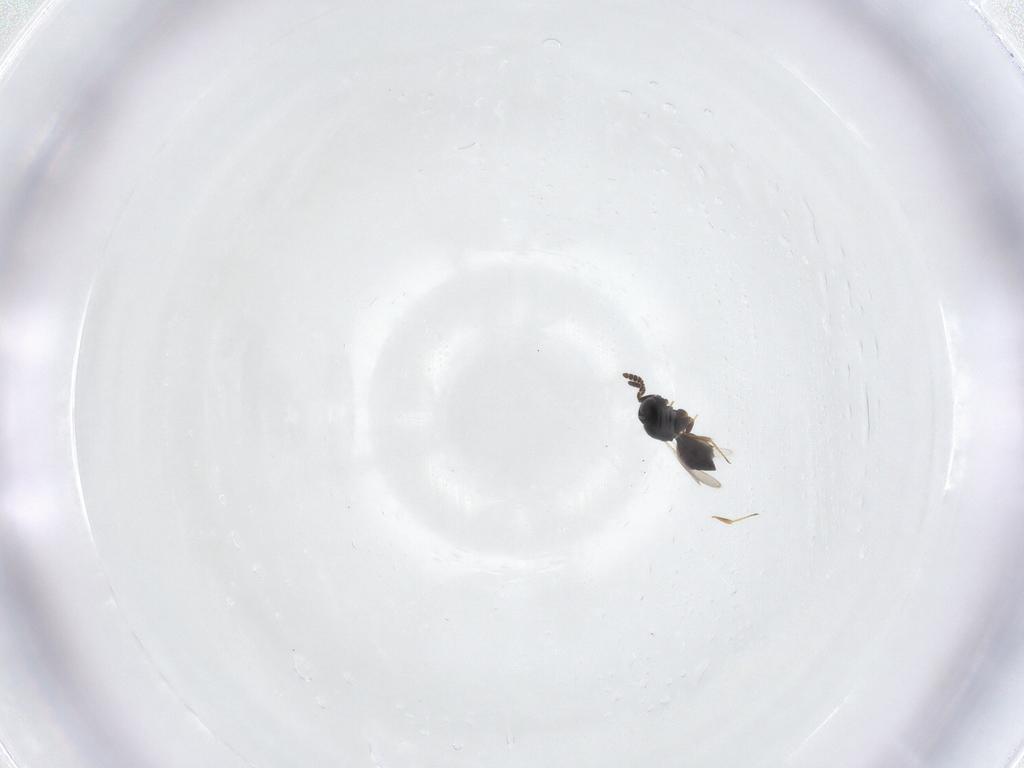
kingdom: Animalia
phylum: Arthropoda
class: Insecta
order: Hymenoptera
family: Scelionidae
